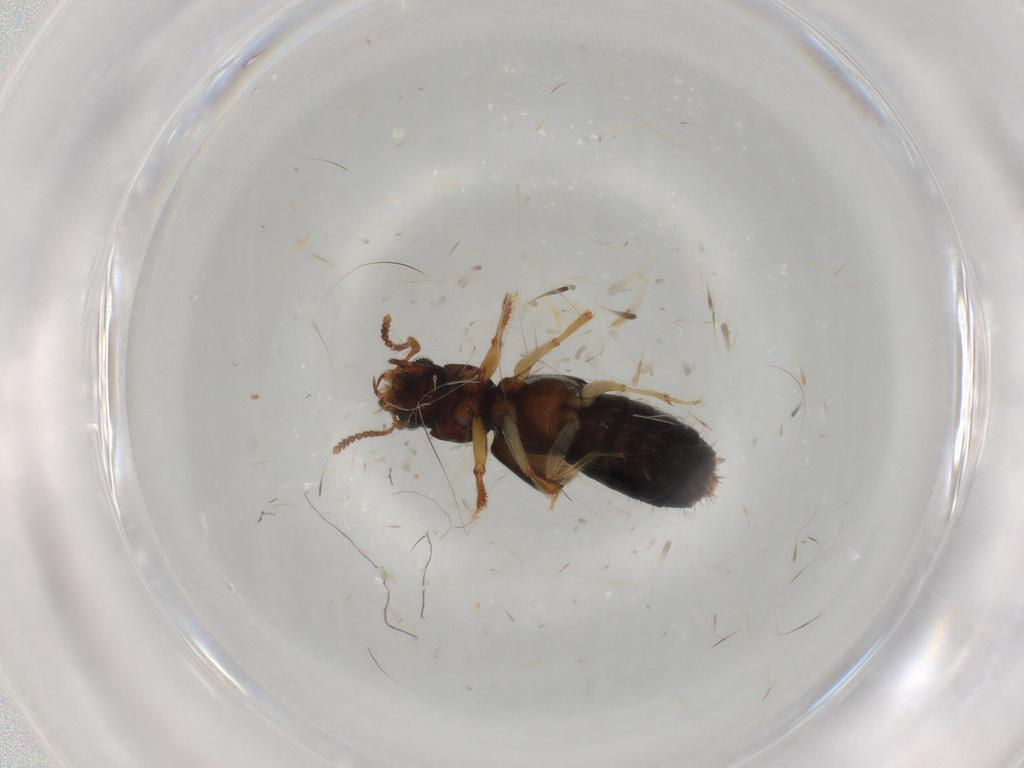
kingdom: Animalia
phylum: Arthropoda
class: Insecta
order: Coleoptera
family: Staphylinidae
